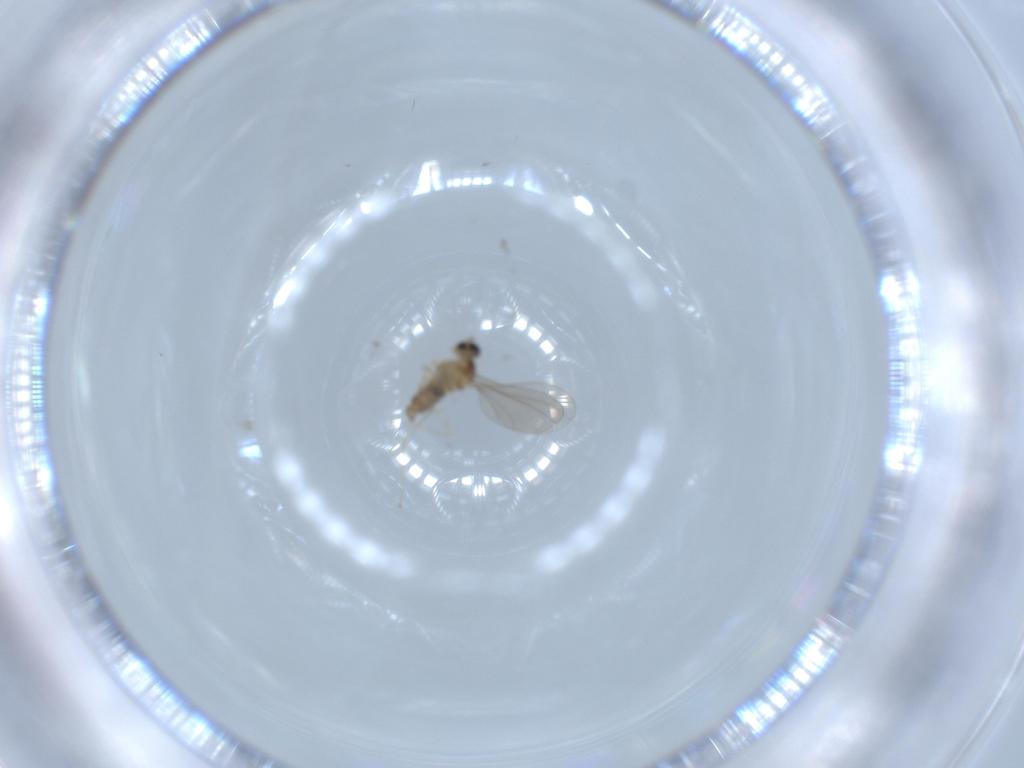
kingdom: Animalia
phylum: Arthropoda
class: Insecta
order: Diptera
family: Cecidomyiidae
